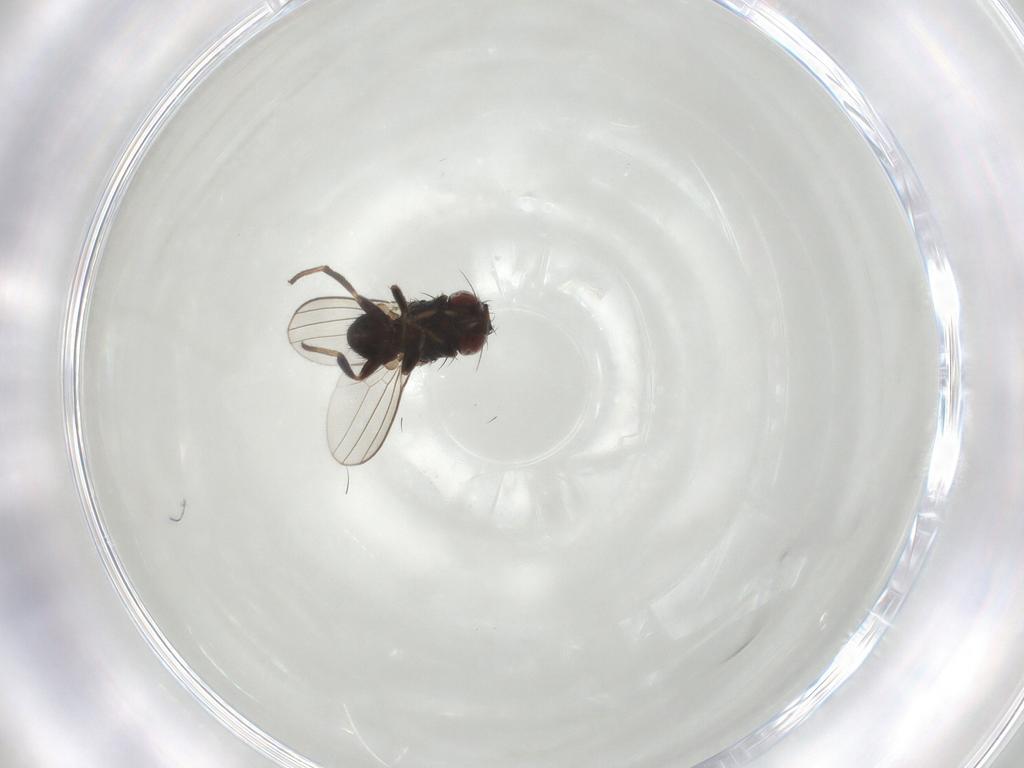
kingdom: Animalia
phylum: Arthropoda
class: Insecta
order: Diptera
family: Milichiidae
